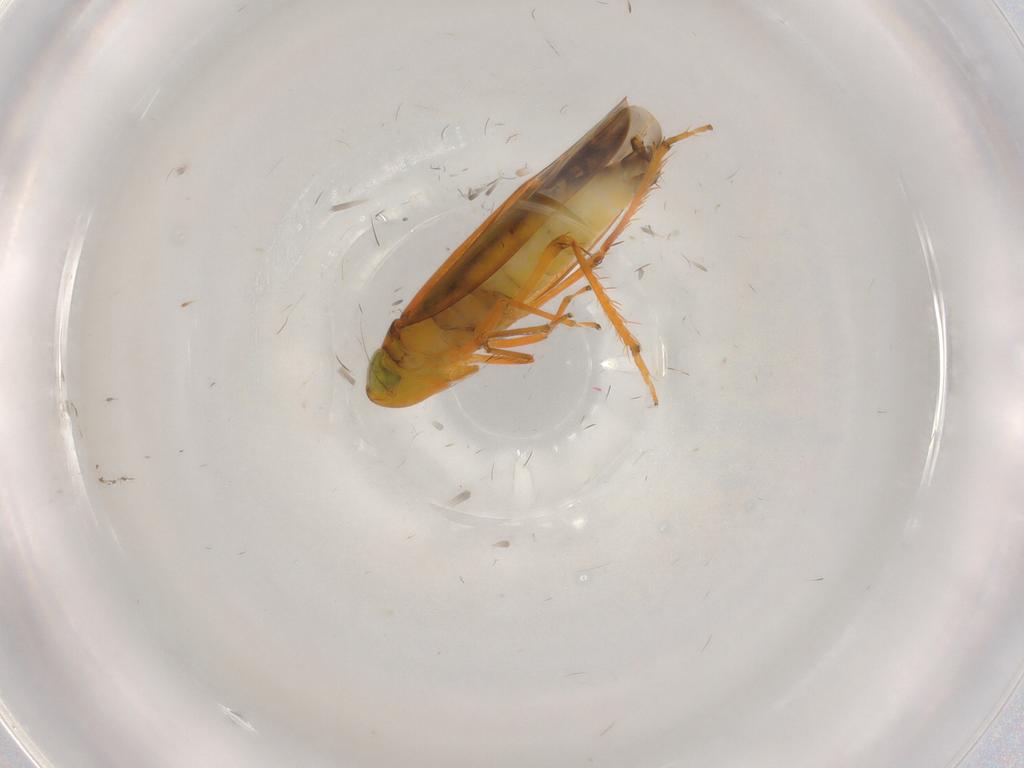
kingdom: Animalia
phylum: Arthropoda
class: Insecta
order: Hemiptera
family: Cicadellidae
